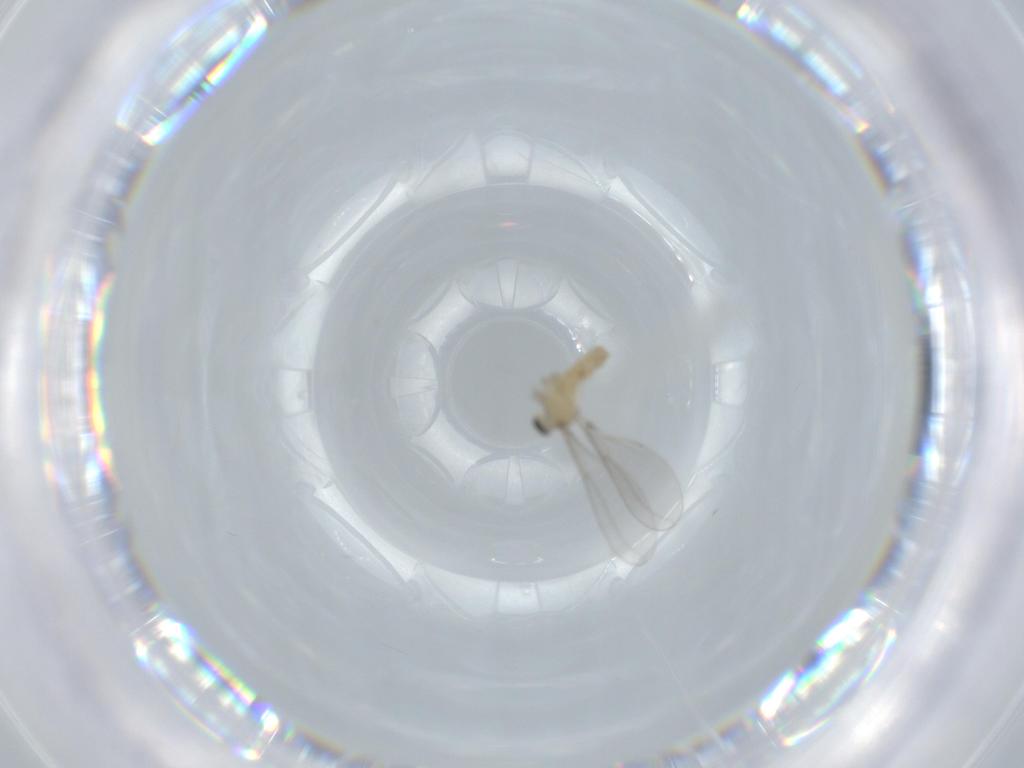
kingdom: Animalia
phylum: Arthropoda
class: Insecta
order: Diptera
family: Cecidomyiidae
